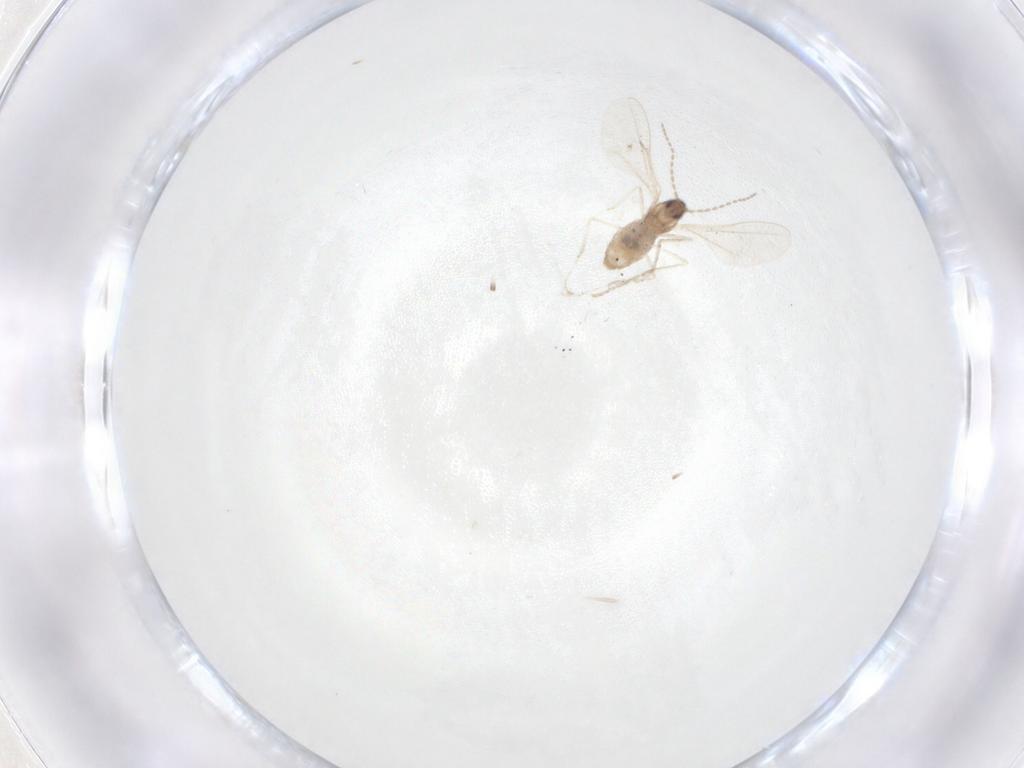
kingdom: Animalia
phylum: Arthropoda
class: Insecta
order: Diptera
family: Cecidomyiidae
